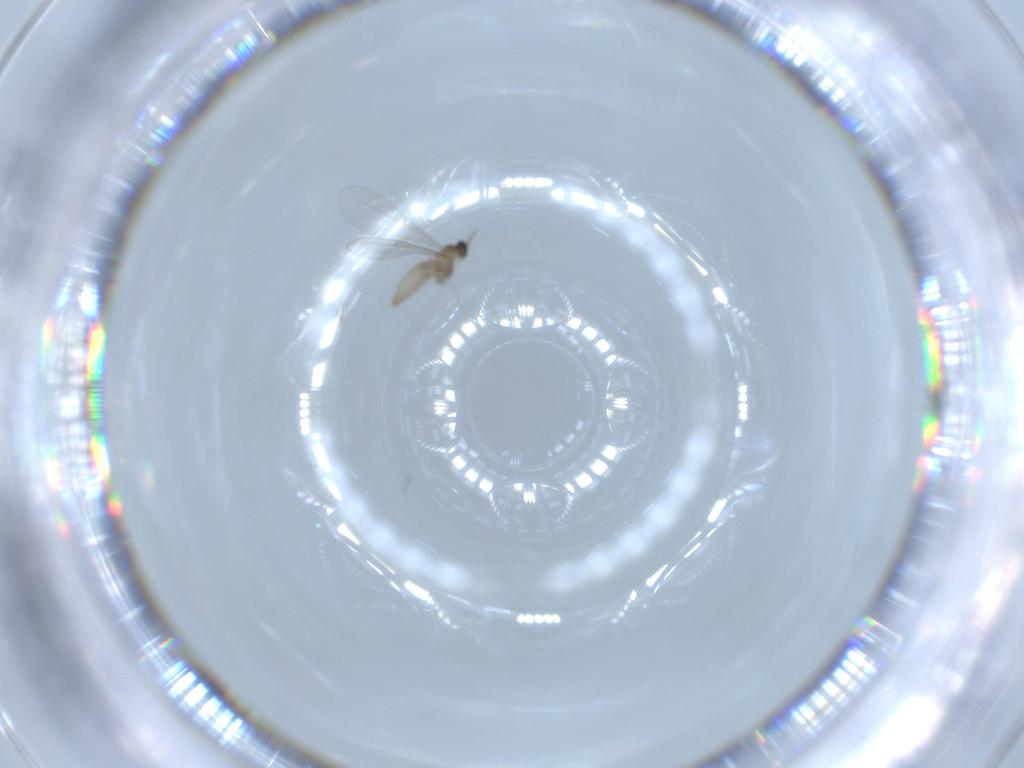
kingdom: Animalia
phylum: Arthropoda
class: Insecta
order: Diptera
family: Cecidomyiidae
